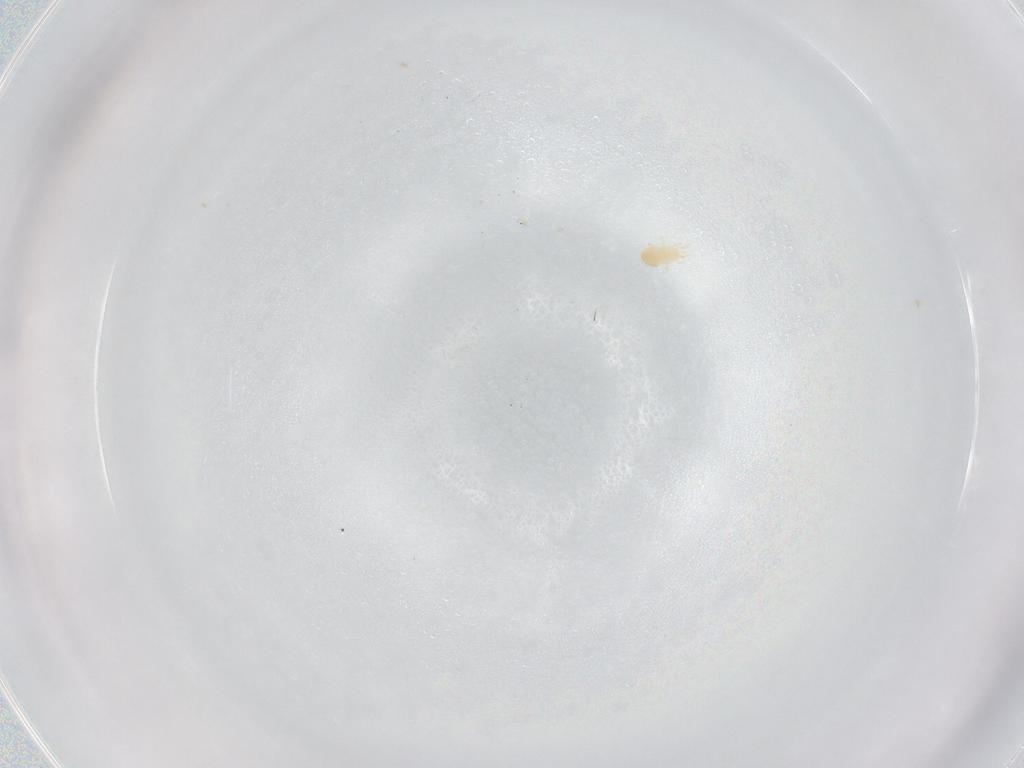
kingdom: Animalia
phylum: Arthropoda
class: Arachnida
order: Mesostigmata
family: Blattisociidae
